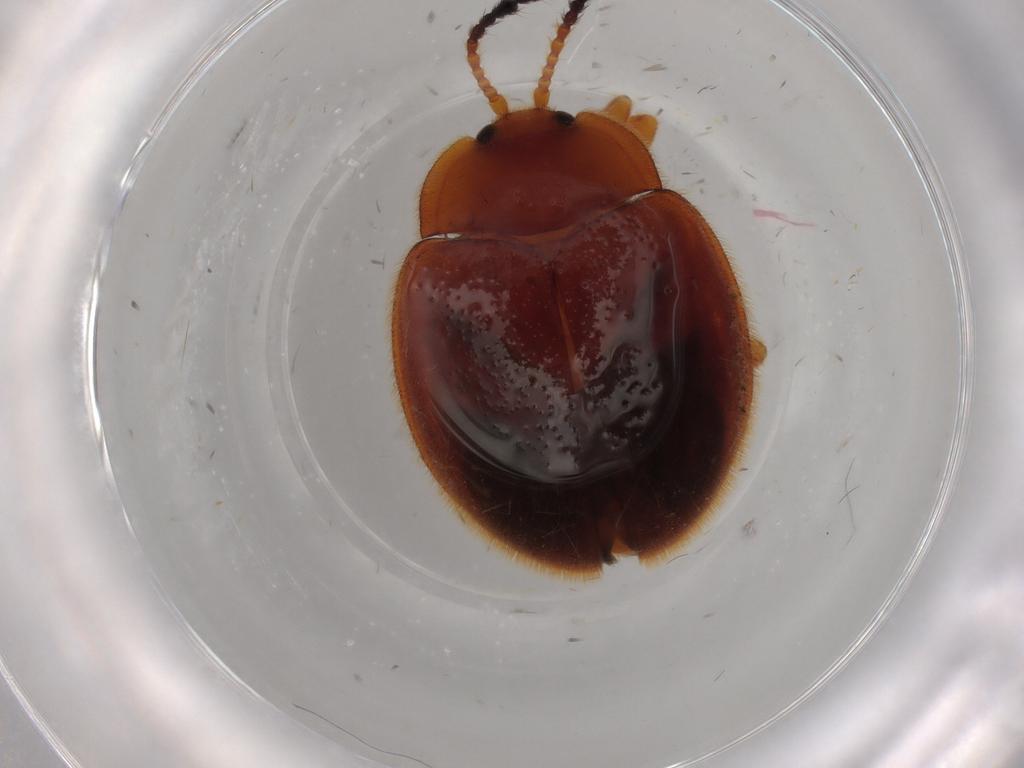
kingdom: Animalia
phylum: Arthropoda
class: Insecta
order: Coleoptera
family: Endomychidae
